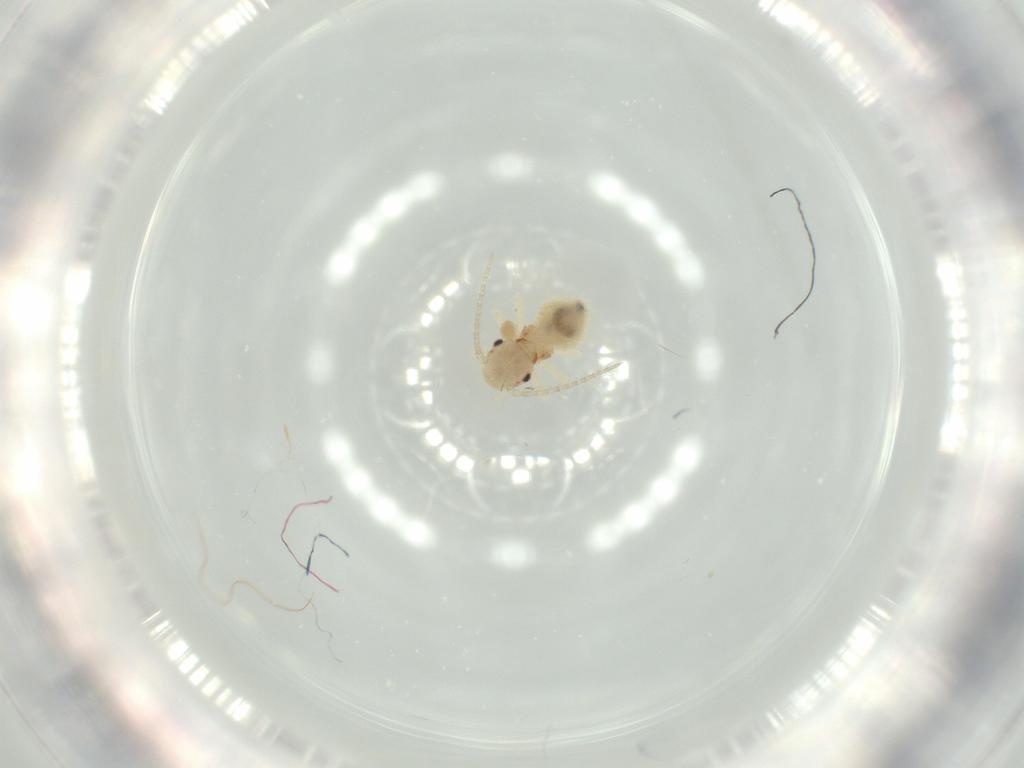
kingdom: Animalia
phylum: Arthropoda
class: Insecta
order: Psocodea
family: Amphipsocidae
